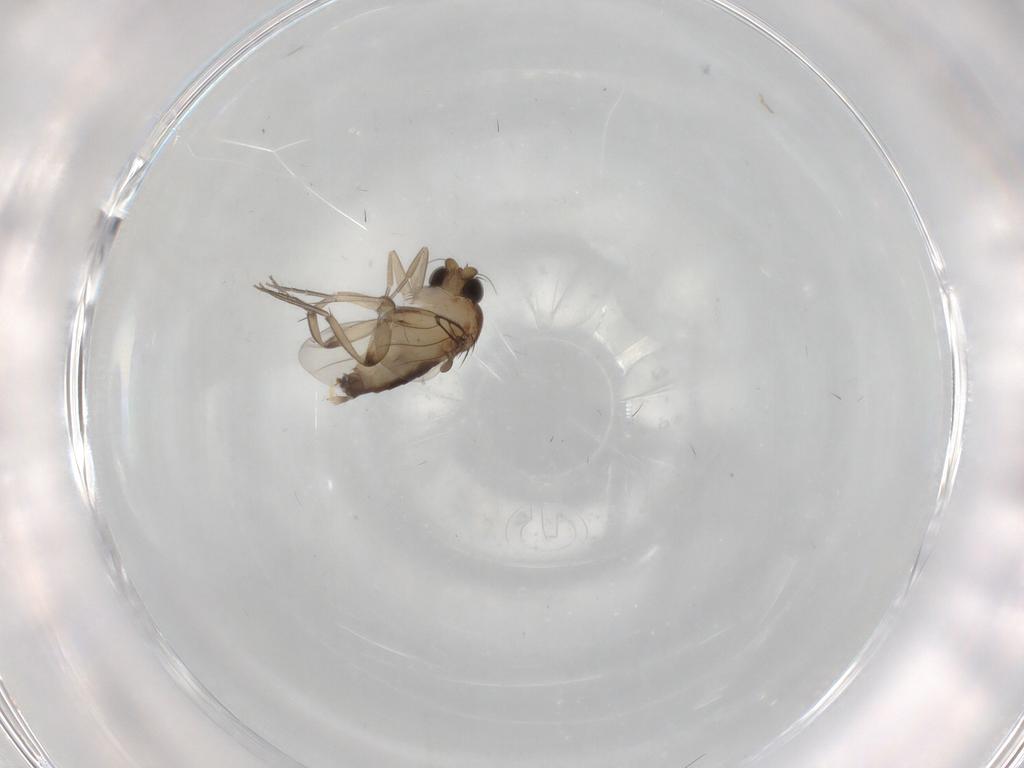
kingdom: Animalia
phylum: Arthropoda
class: Insecta
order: Diptera
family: Phoridae
